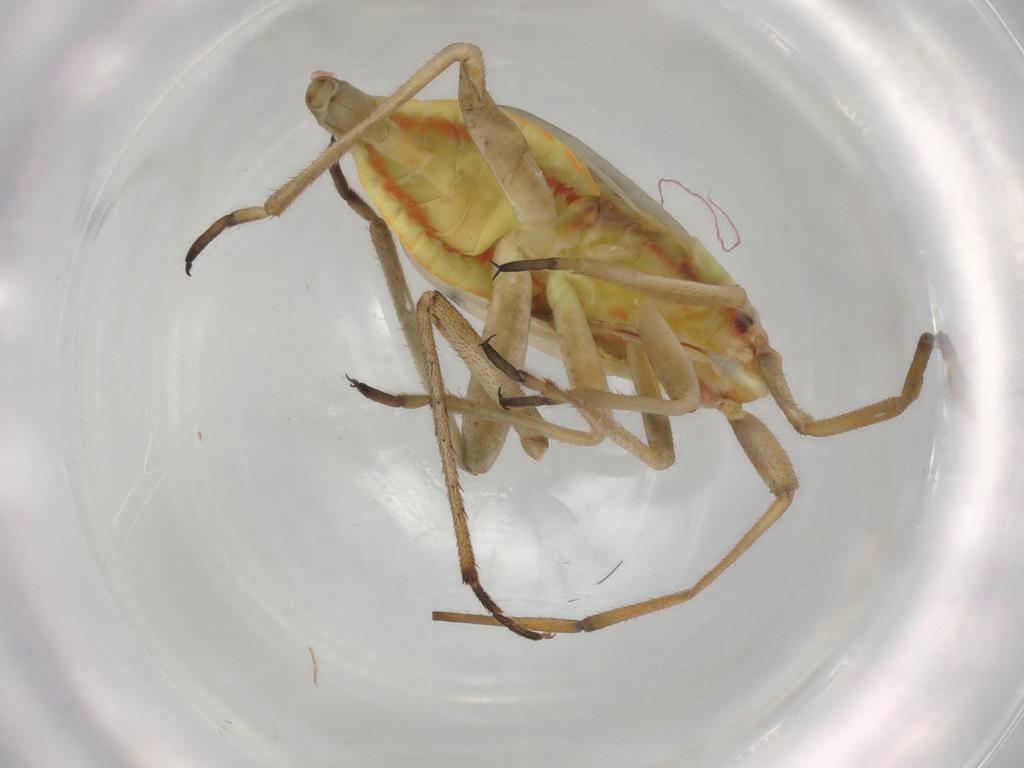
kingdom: Animalia
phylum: Arthropoda
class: Insecta
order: Hemiptera
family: Miridae
